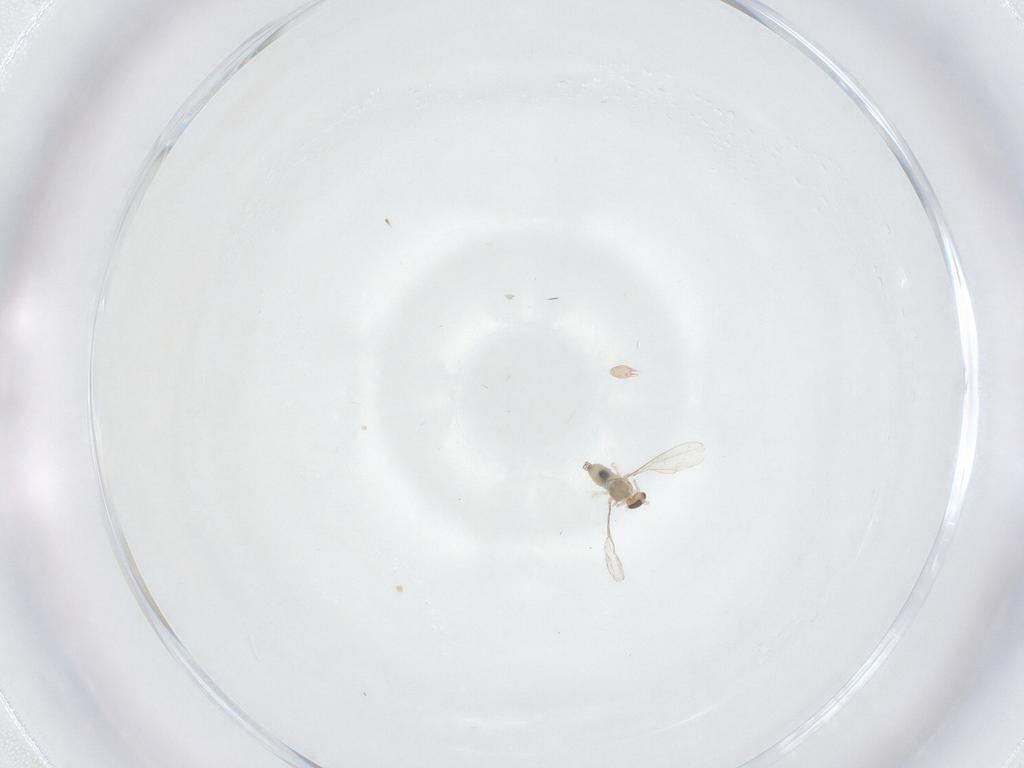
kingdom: Animalia
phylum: Arthropoda
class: Insecta
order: Diptera
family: Cecidomyiidae
